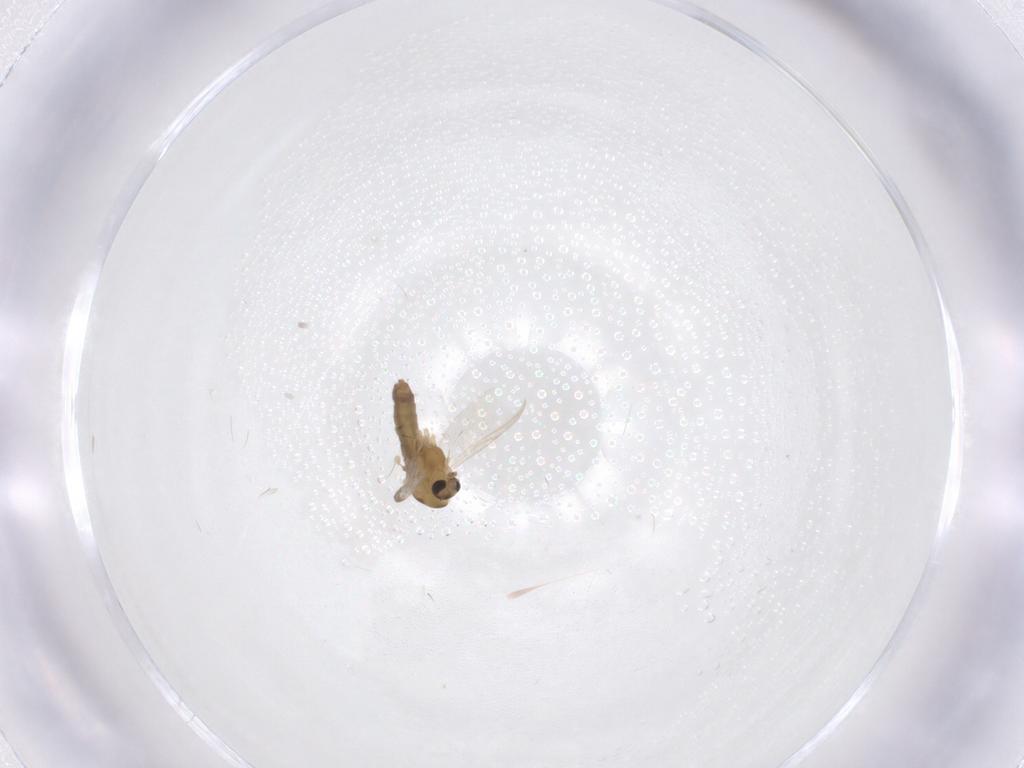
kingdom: Animalia
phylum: Arthropoda
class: Insecta
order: Diptera
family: Chironomidae
